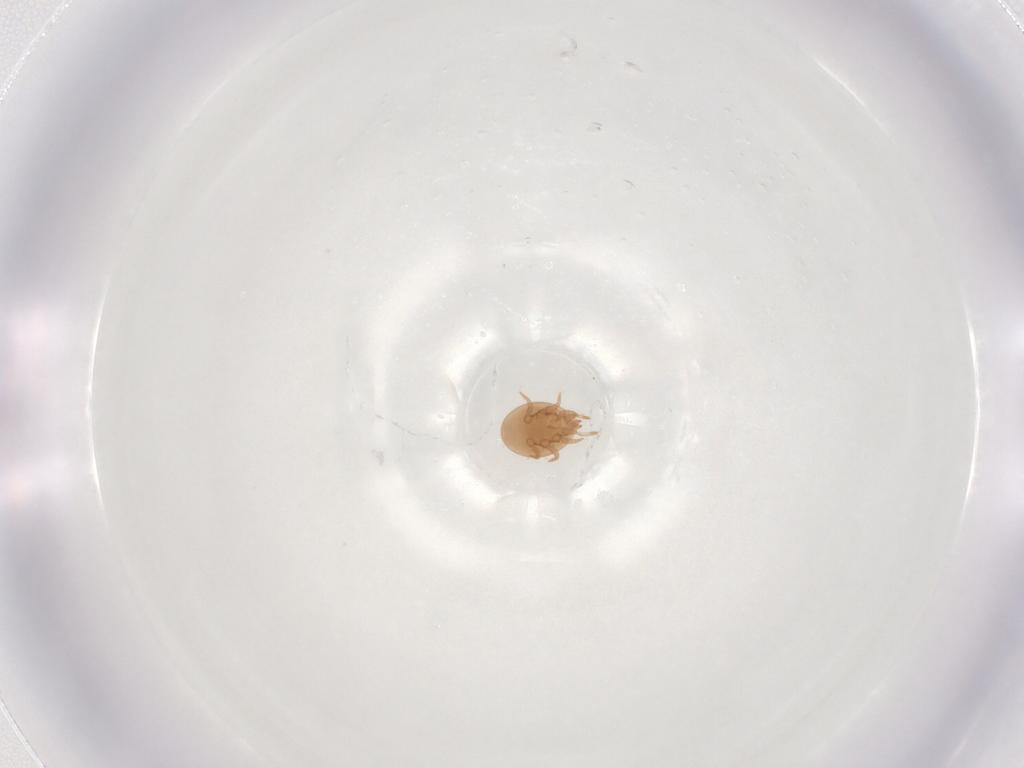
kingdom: Animalia
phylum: Arthropoda
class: Arachnida
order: Mesostigmata
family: Trematuridae
